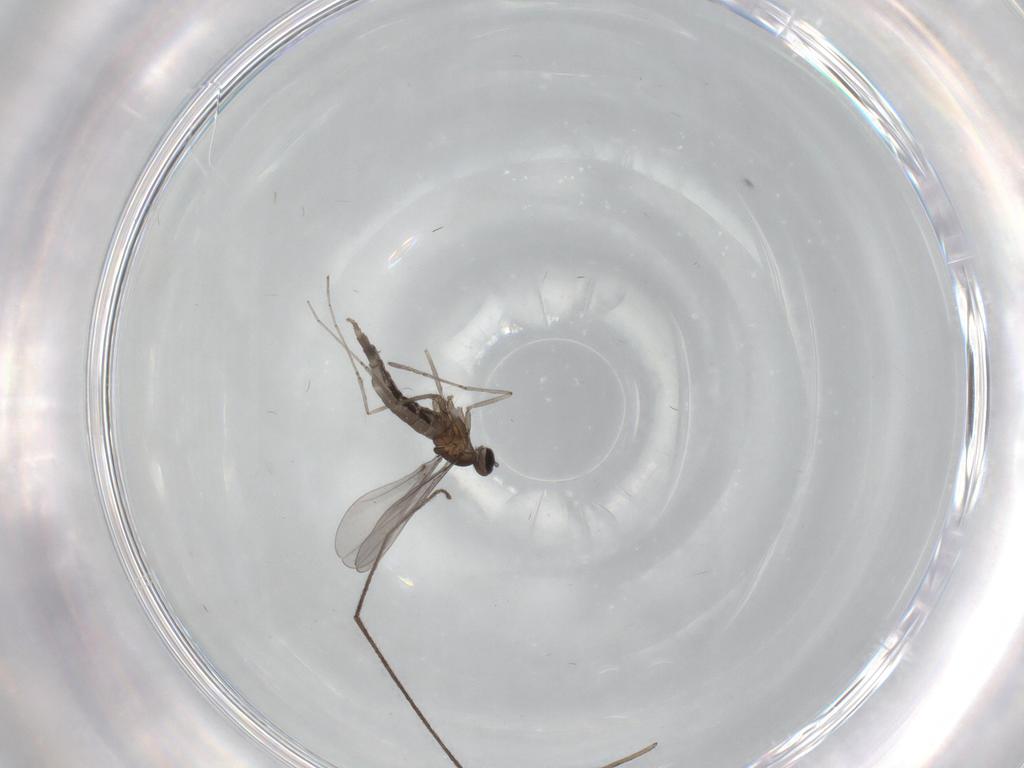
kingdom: Animalia
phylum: Arthropoda
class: Insecta
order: Diptera
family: Limoniidae
